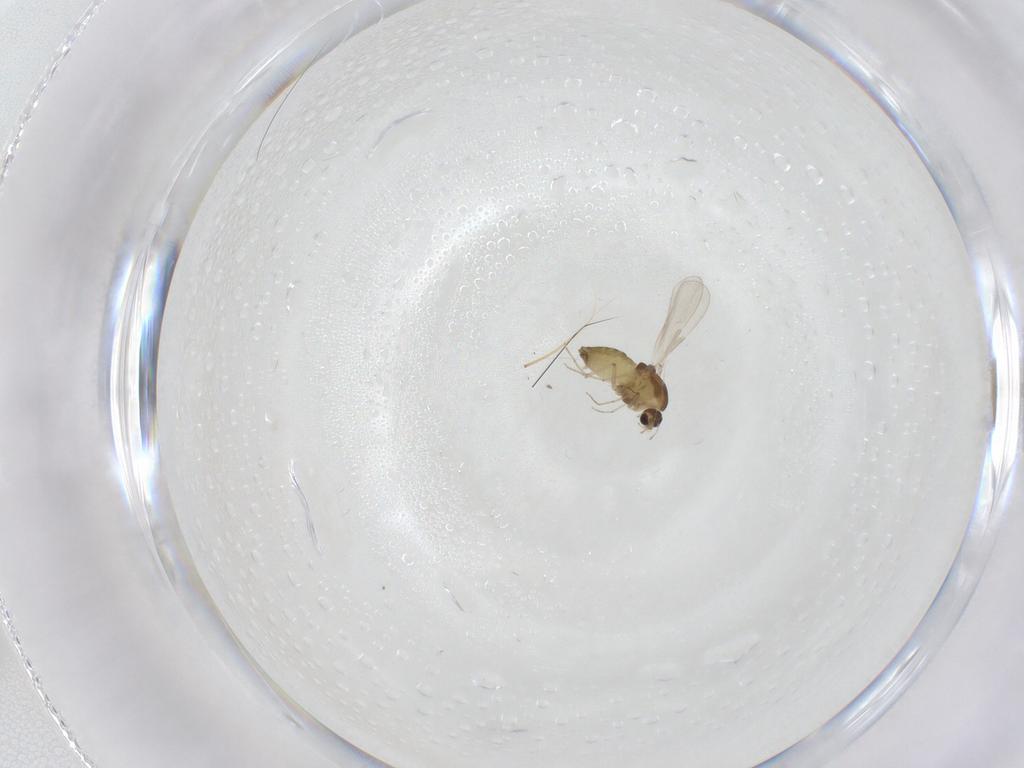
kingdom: Animalia
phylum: Arthropoda
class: Insecta
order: Diptera
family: Chironomidae
